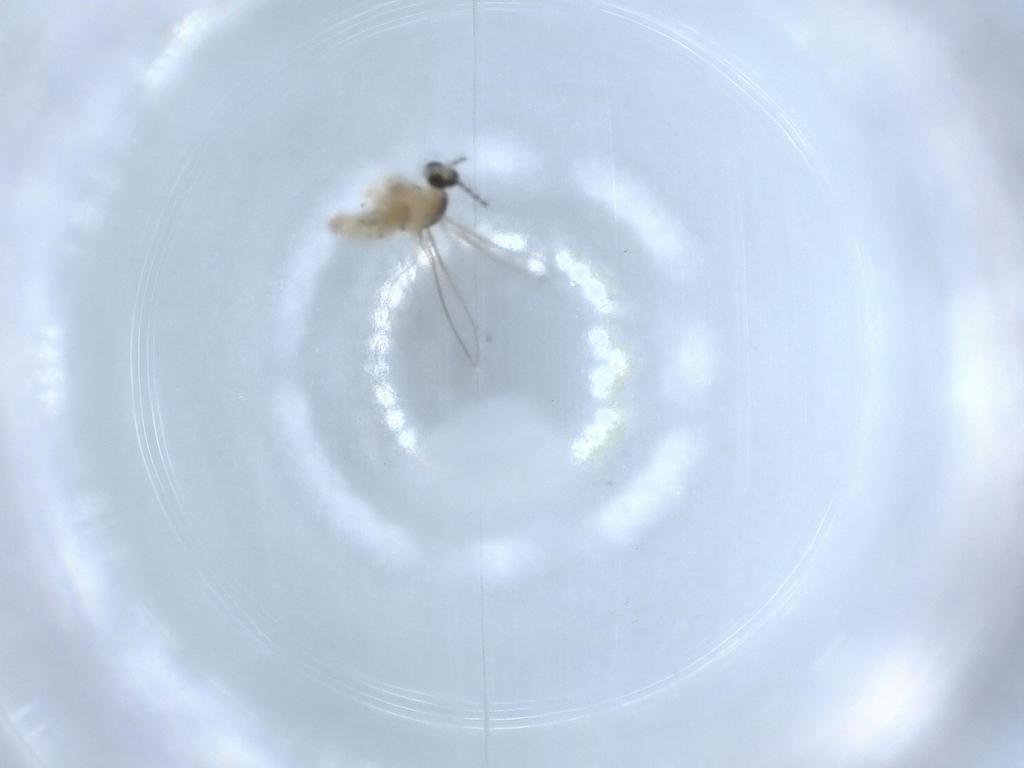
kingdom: Animalia
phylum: Arthropoda
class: Insecta
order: Diptera
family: Cecidomyiidae
